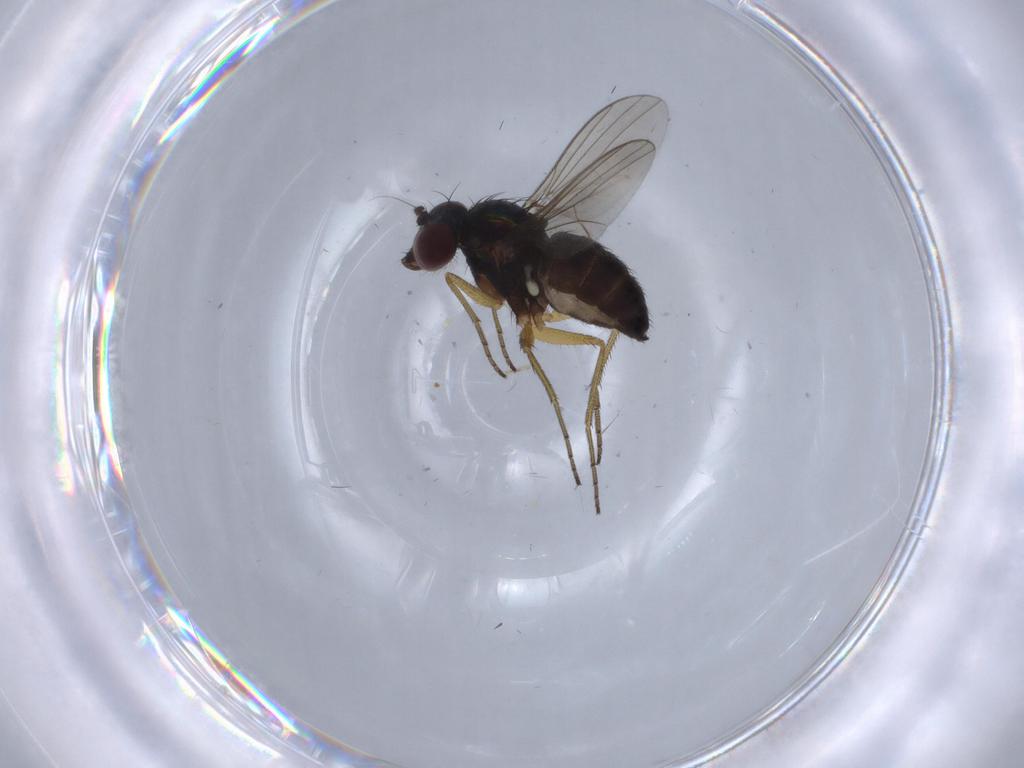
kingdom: Animalia
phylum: Arthropoda
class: Insecta
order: Diptera
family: Dolichopodidae
